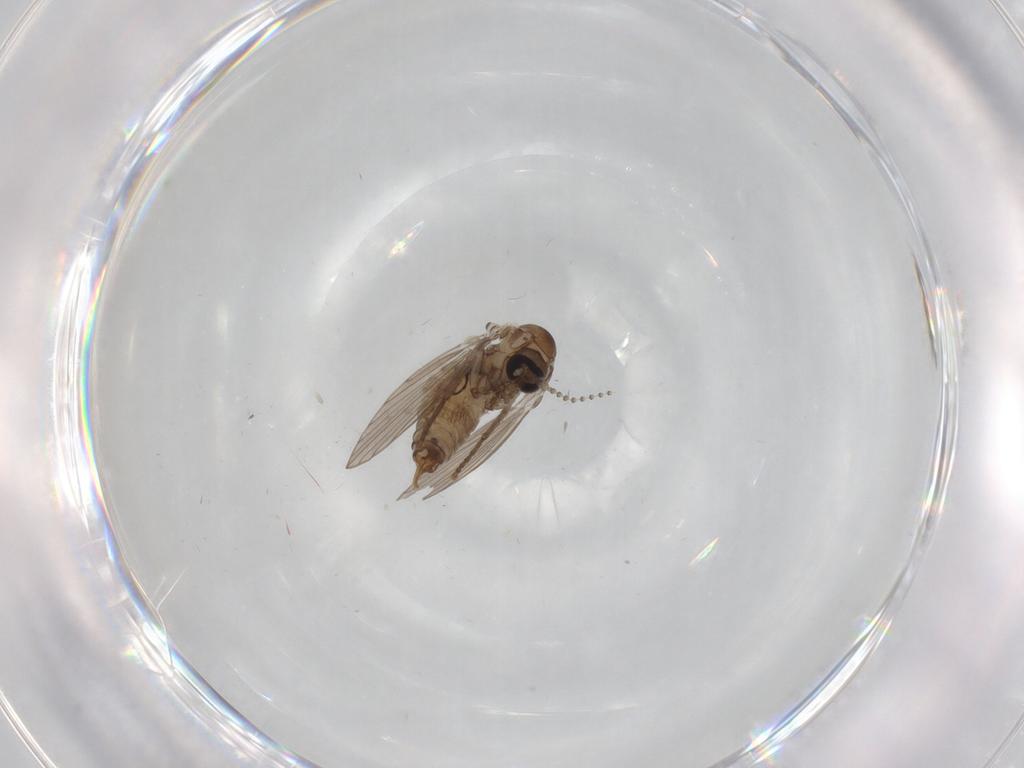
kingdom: Animalia
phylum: Arthropoda
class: Insecta
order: Diptera
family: Psychodidae
